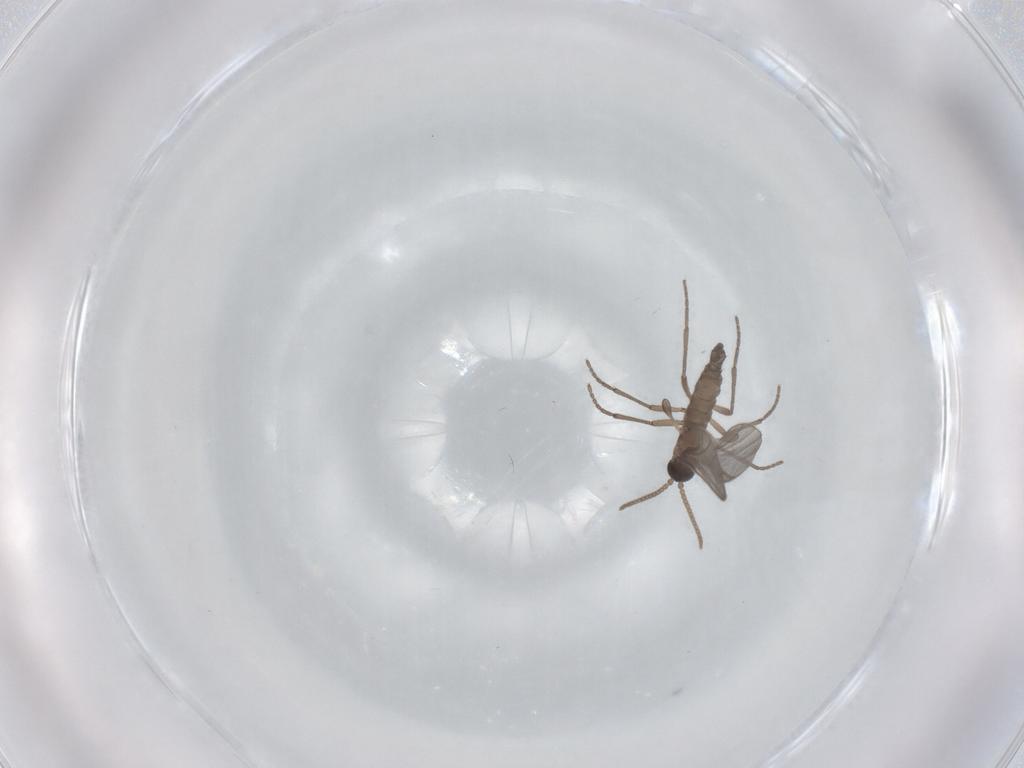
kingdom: Animalia
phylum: Arthropoda
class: Insecta
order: Diptera
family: Sciaridae
